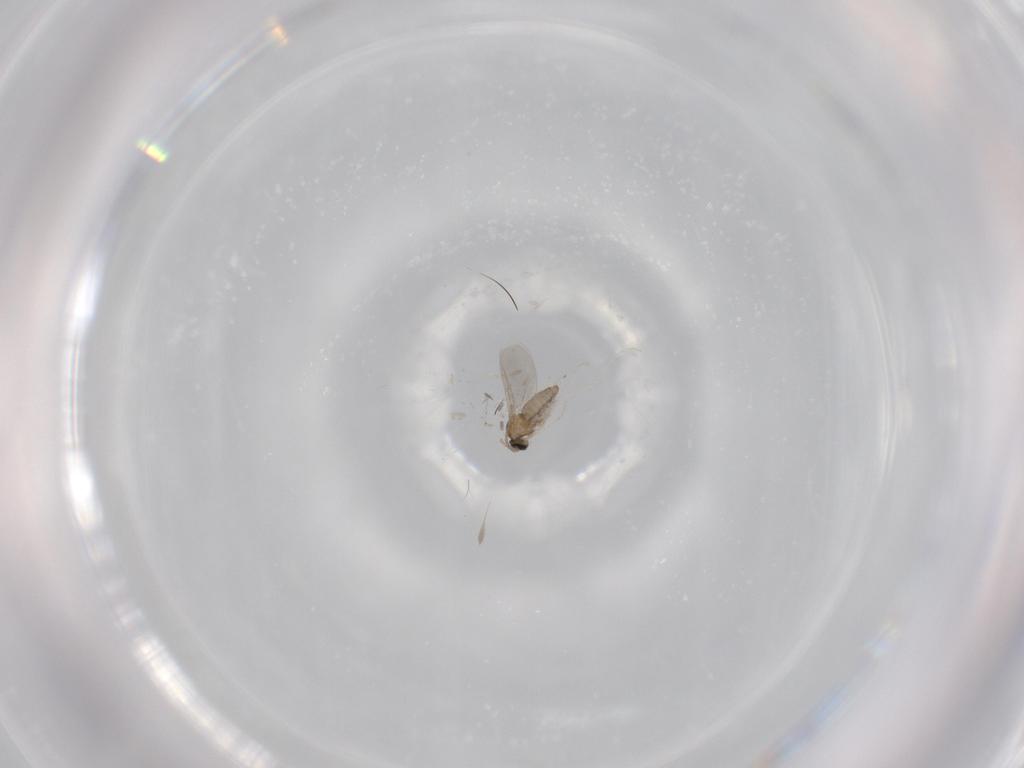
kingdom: Animalia
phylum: Arthropoda
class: Insecta
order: Diptera
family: Cecidomyiidae
